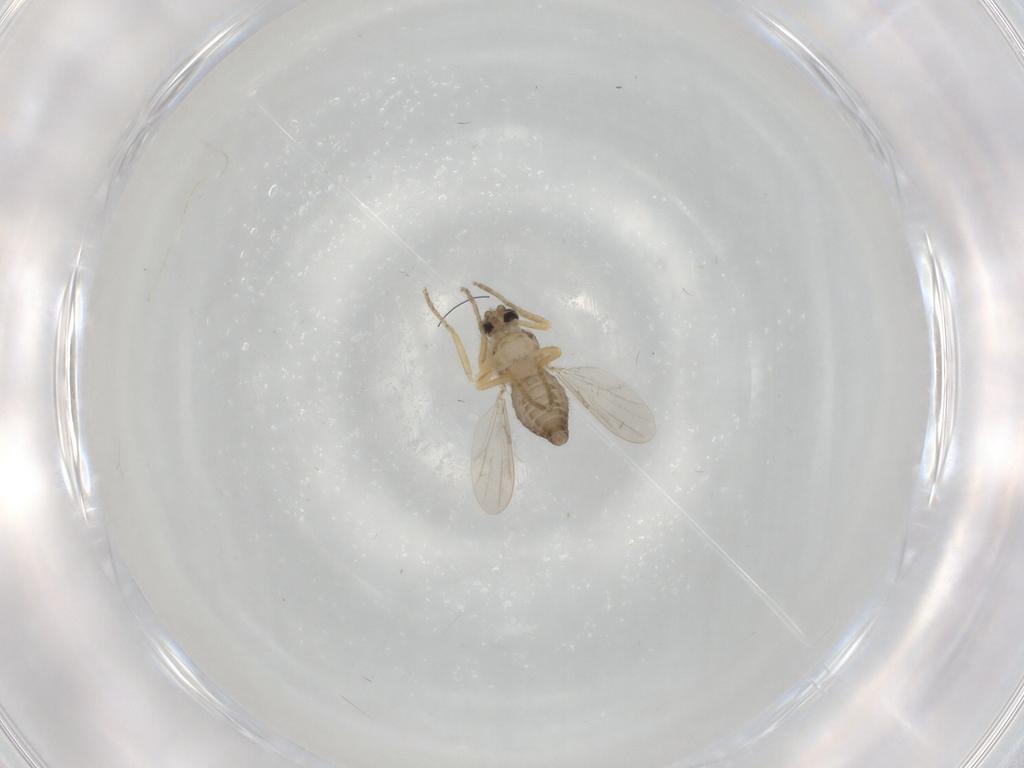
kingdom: Animalia
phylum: Arthropoda
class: Insecta
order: Diptera
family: Ceratopogonidae
